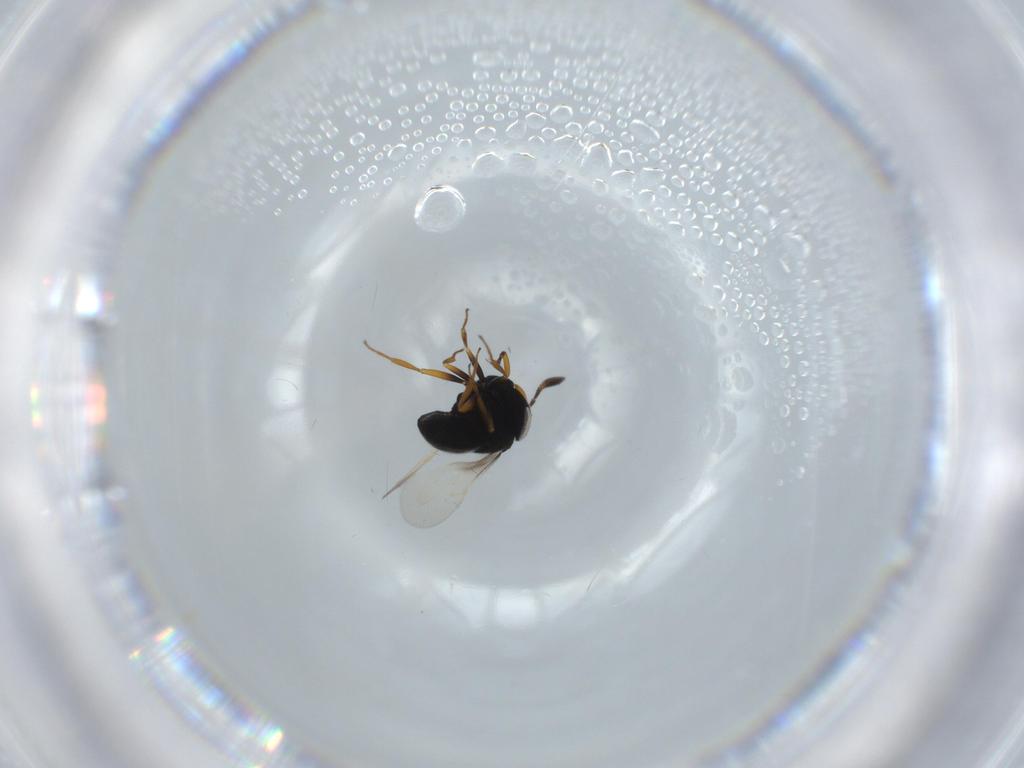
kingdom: Animalia
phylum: Arthropoda
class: Insecta
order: Hymenoptera
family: Scelionidae
